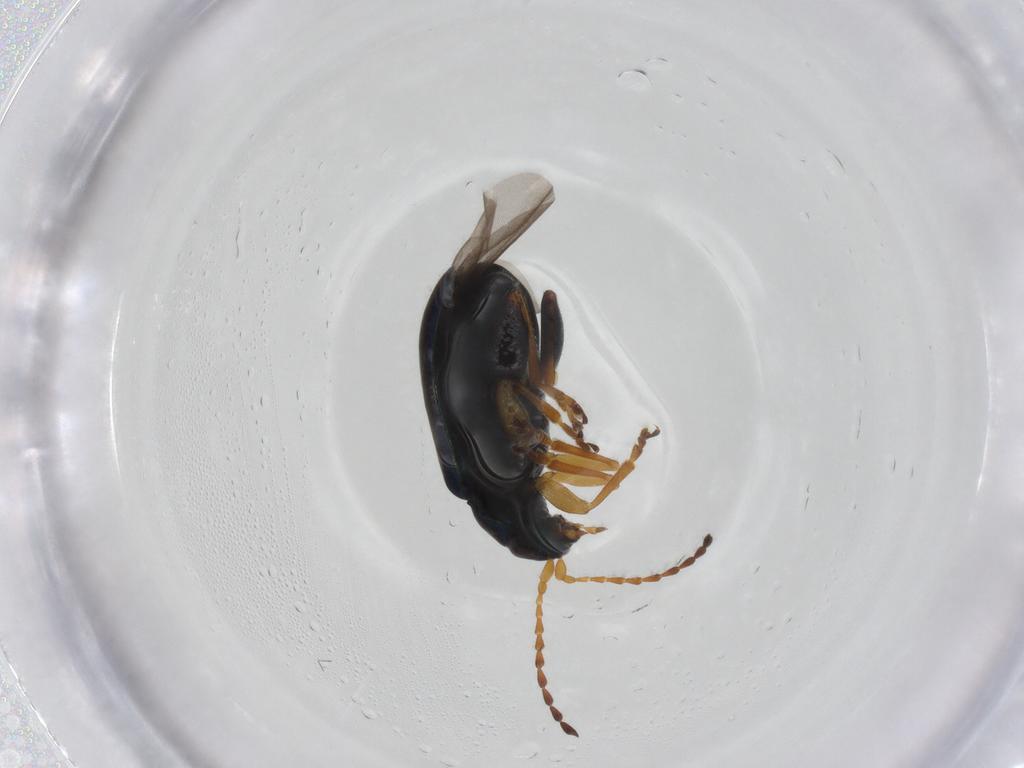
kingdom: Animalia
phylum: Arthropoda
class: Insecta
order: Coleoptera
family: Chrysomelidae
